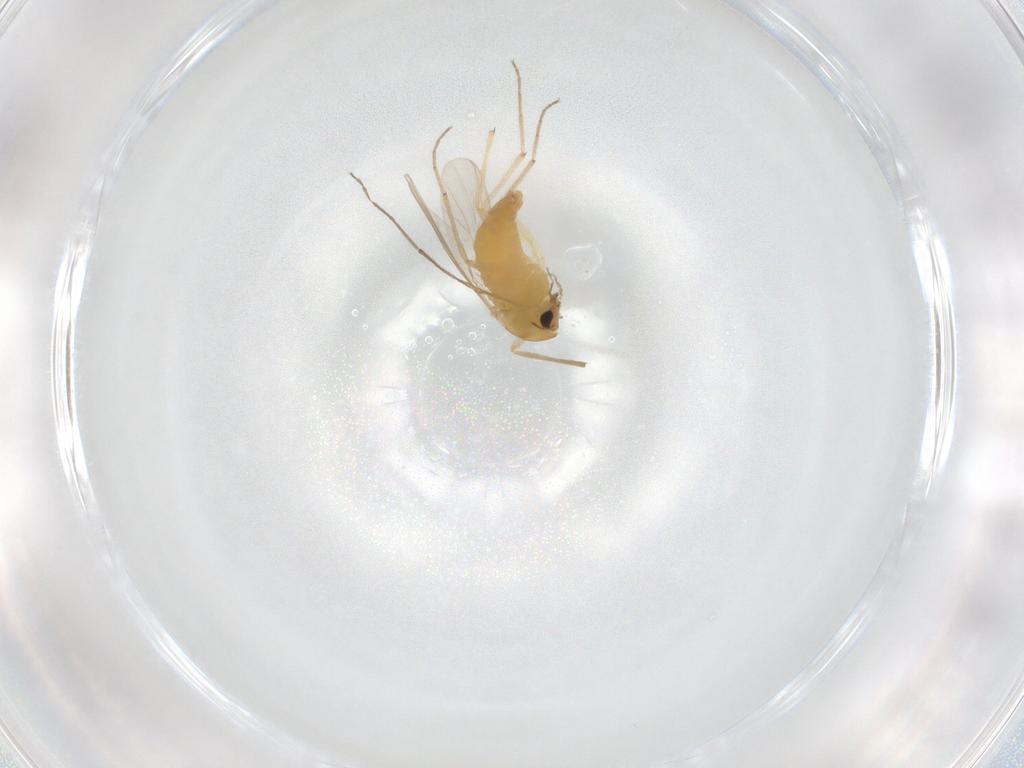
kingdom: Animalia
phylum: Arthropoda
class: Insecta
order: Diptera
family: Chironomidae
